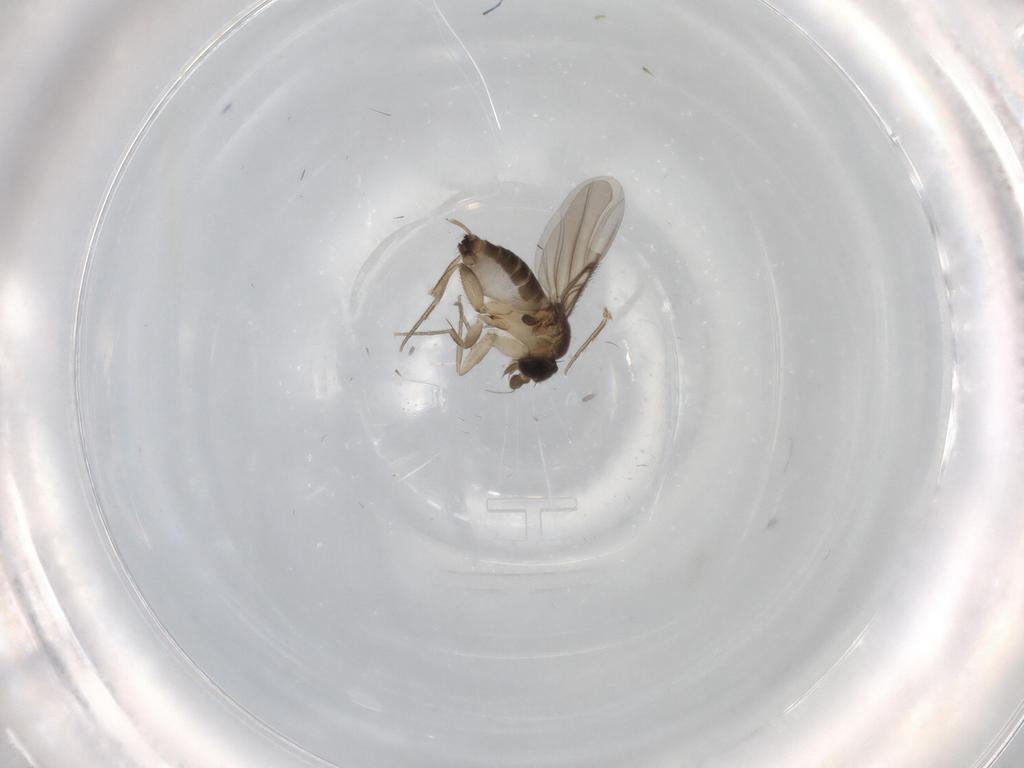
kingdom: Animalia
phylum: Arthropoda
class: Insecta
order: Diptera
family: Phoridae
